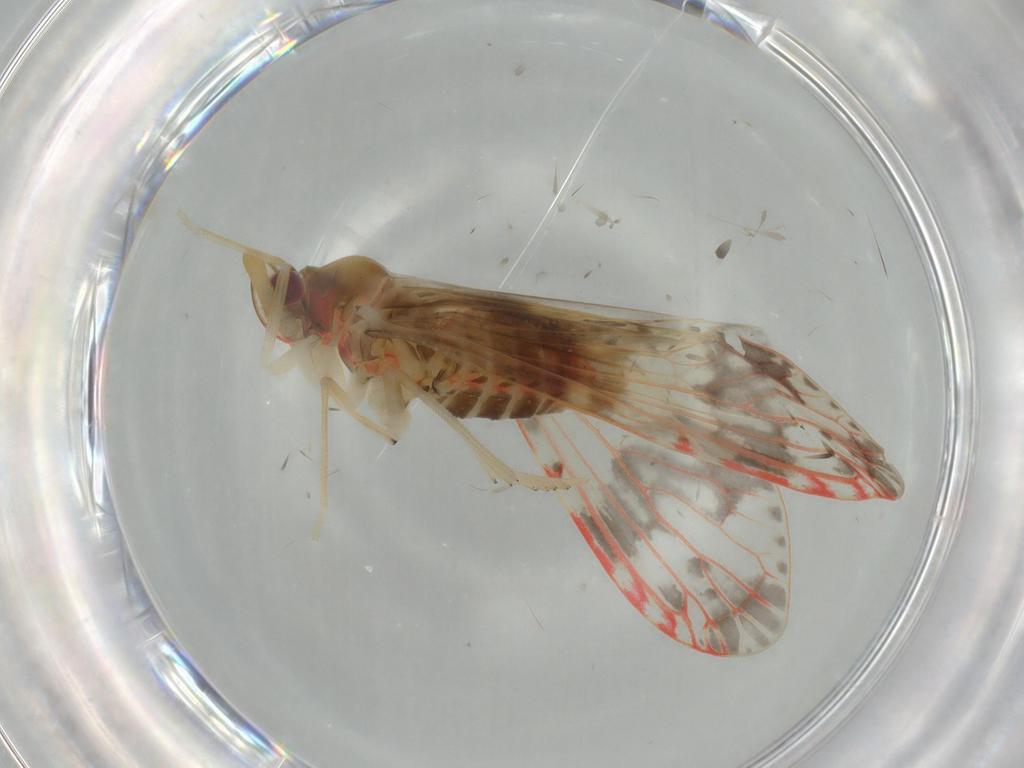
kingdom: Animalia
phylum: Arthropoda
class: Insecta
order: Hemiptera
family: Derbidae
